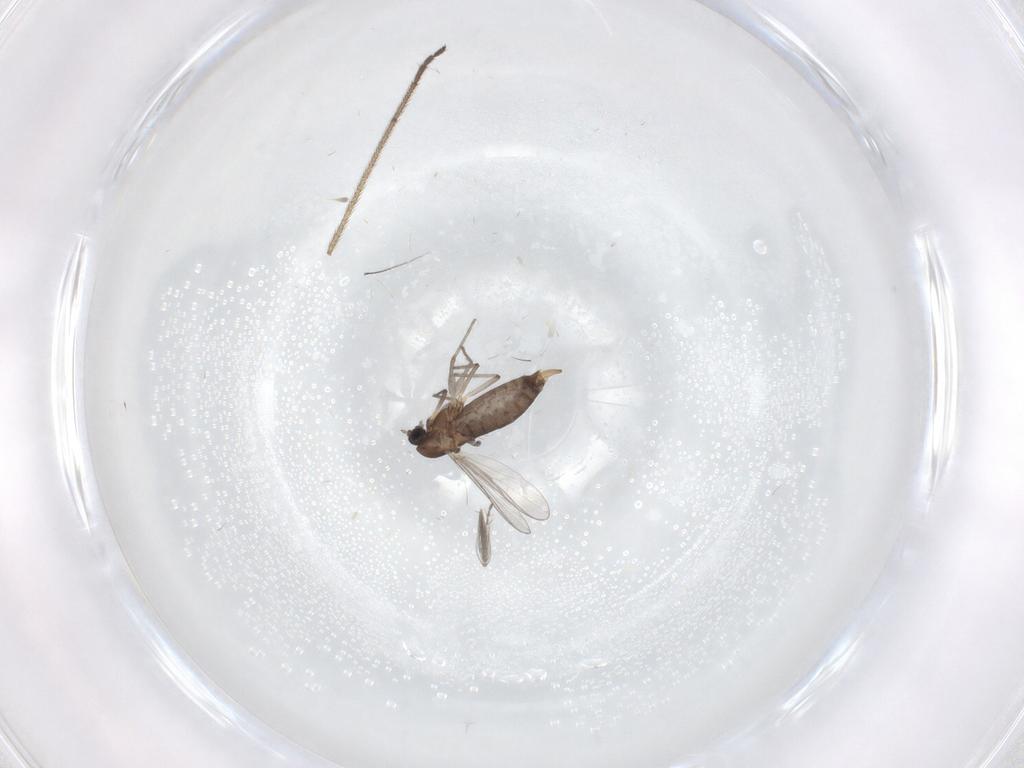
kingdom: Animalia
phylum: Arthropoda
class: Insecta
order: Diptera
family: Chironomidae
